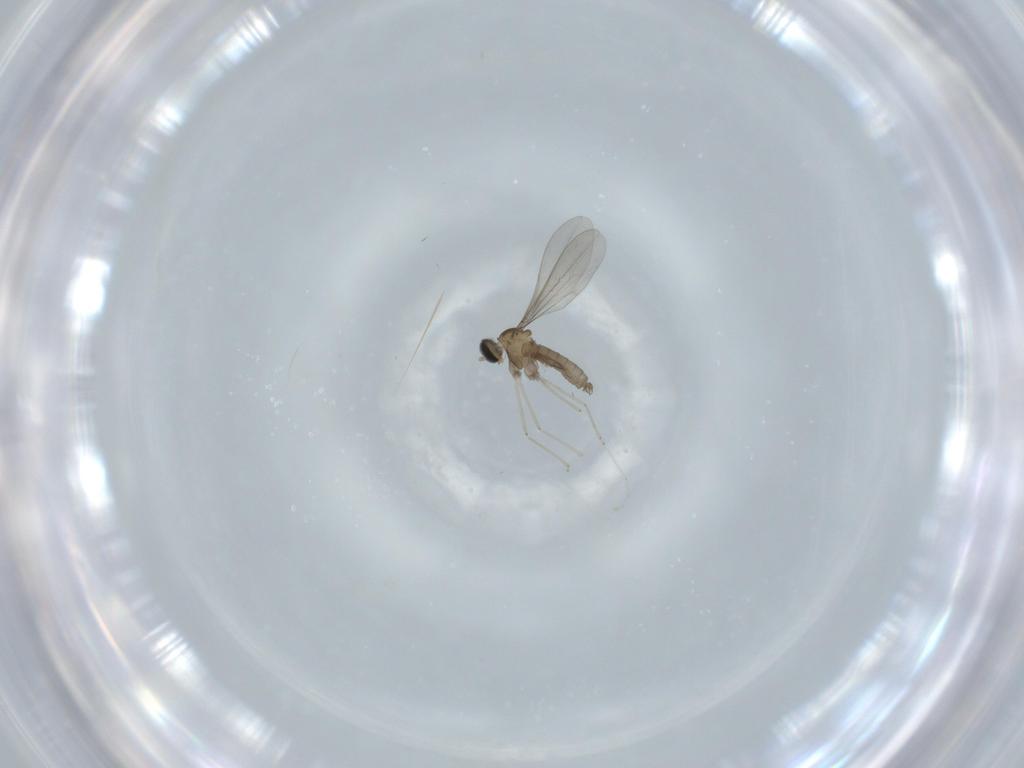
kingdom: Animalia
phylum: Arthropoda
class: Insecta
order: Diptera
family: Cecidomyiidae
